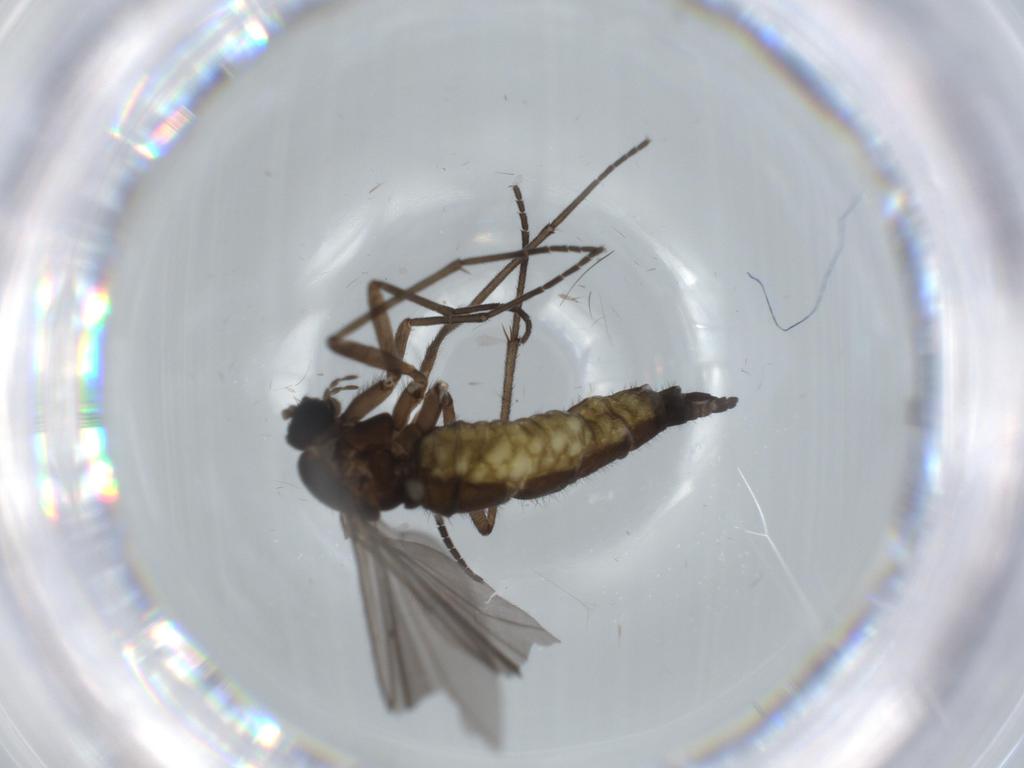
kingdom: Animalia
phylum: Arthropoda
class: Insecta
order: Diptera
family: Sciaridae
